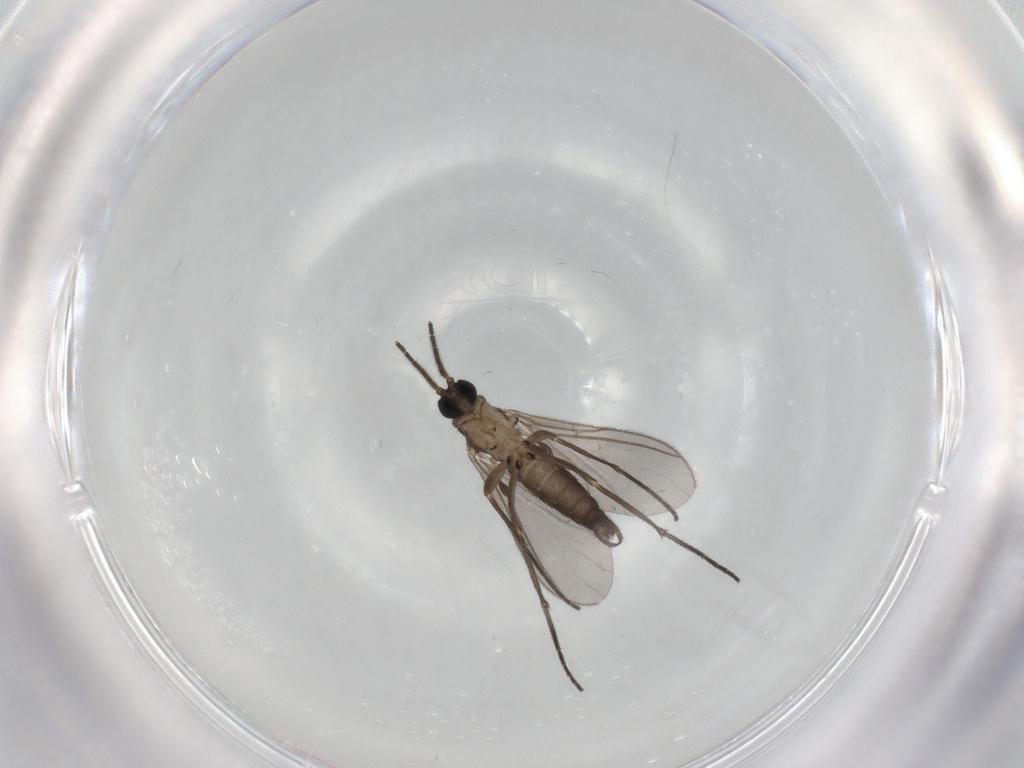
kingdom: Animalia
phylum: Arthropoda
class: Insecta
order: Diptera
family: Sciaridae
